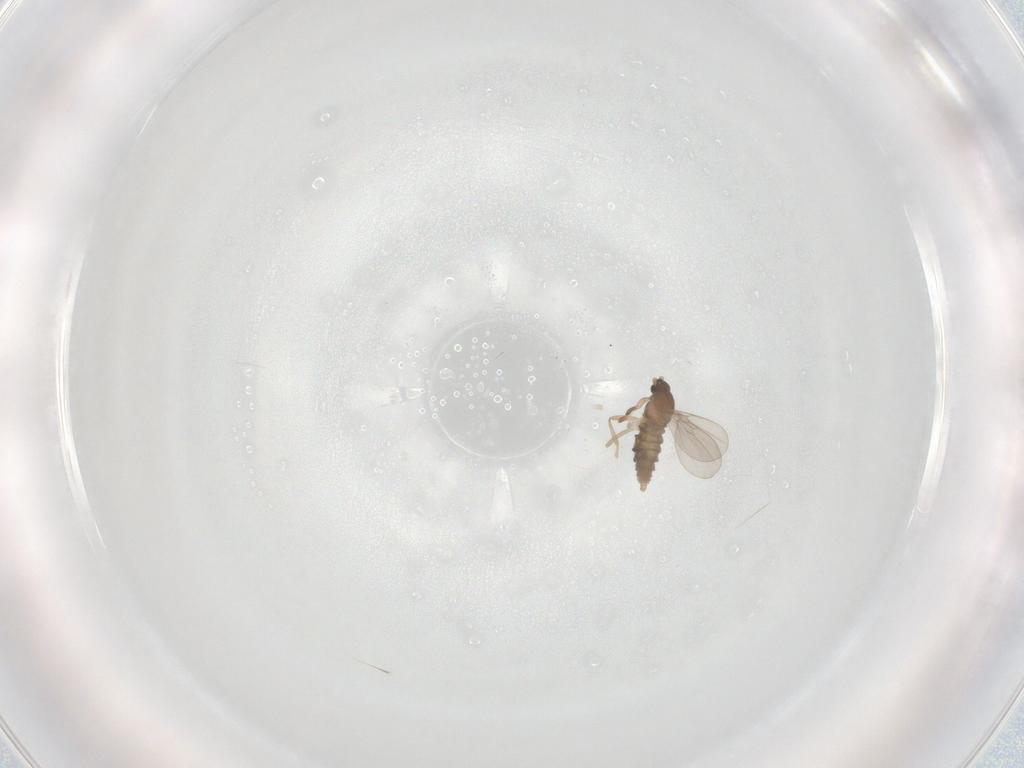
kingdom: Animalia
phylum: Arthropoda
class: Insecta
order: Diptera
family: Cecidomyiidae
